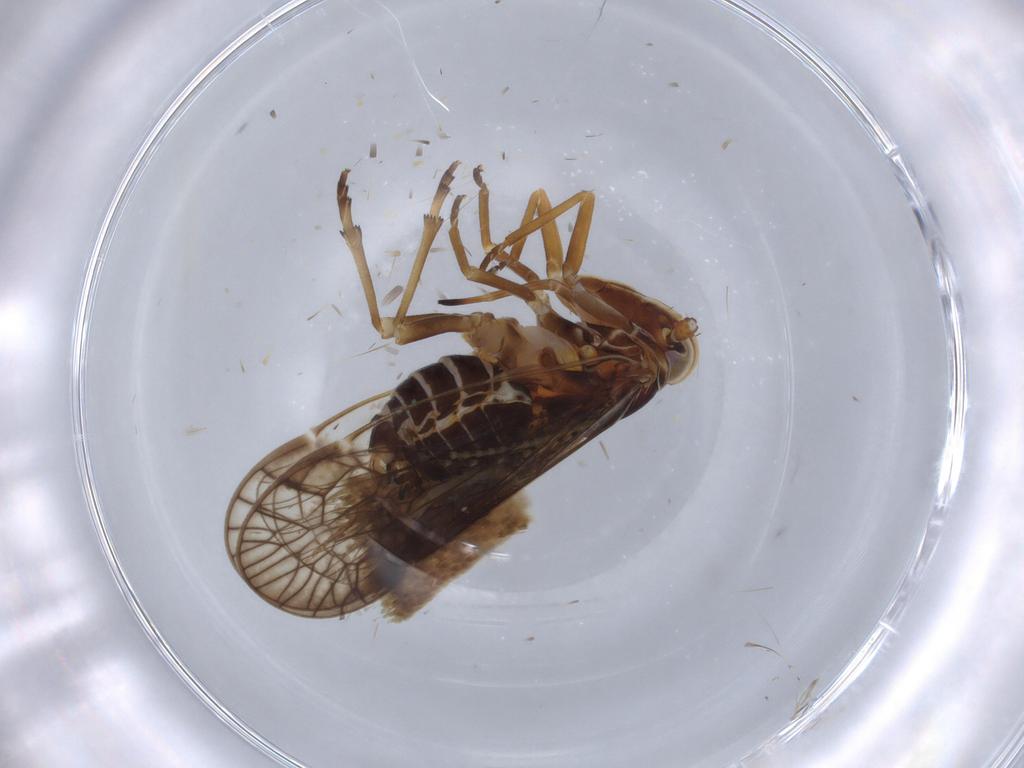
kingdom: Animalia
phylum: Arthropoda
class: Insecta
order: Hemiptera
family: Kinnaridae
